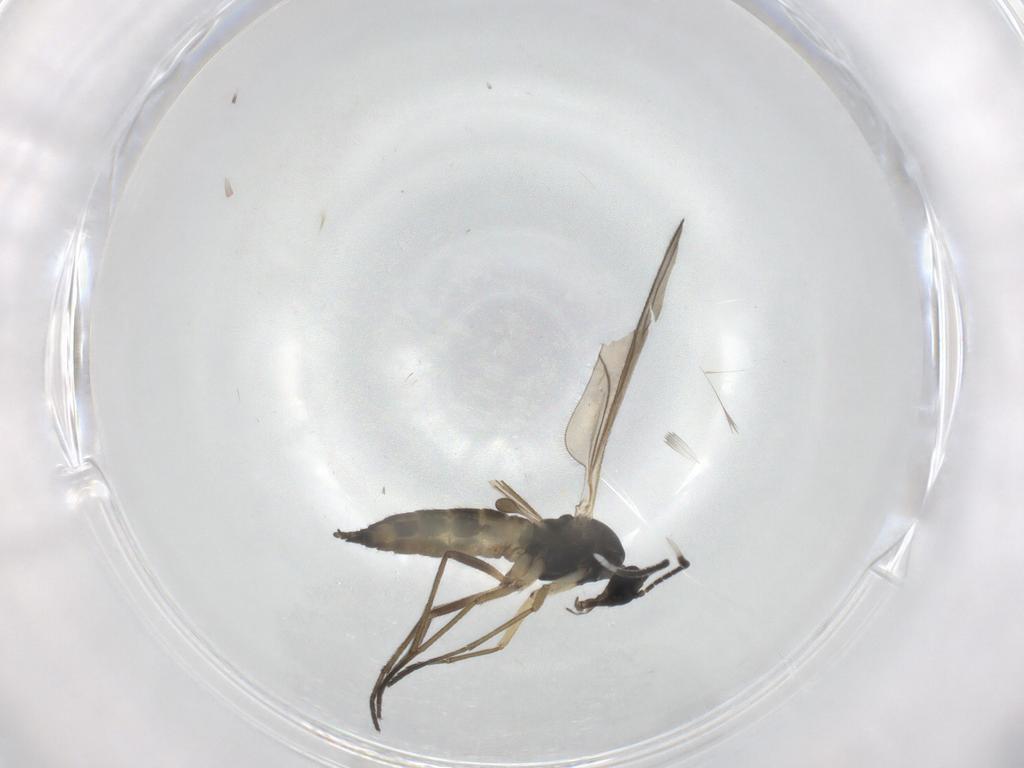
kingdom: Animalia
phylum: Arthropoda
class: Insecta
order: Diptera
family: Sciaridae
